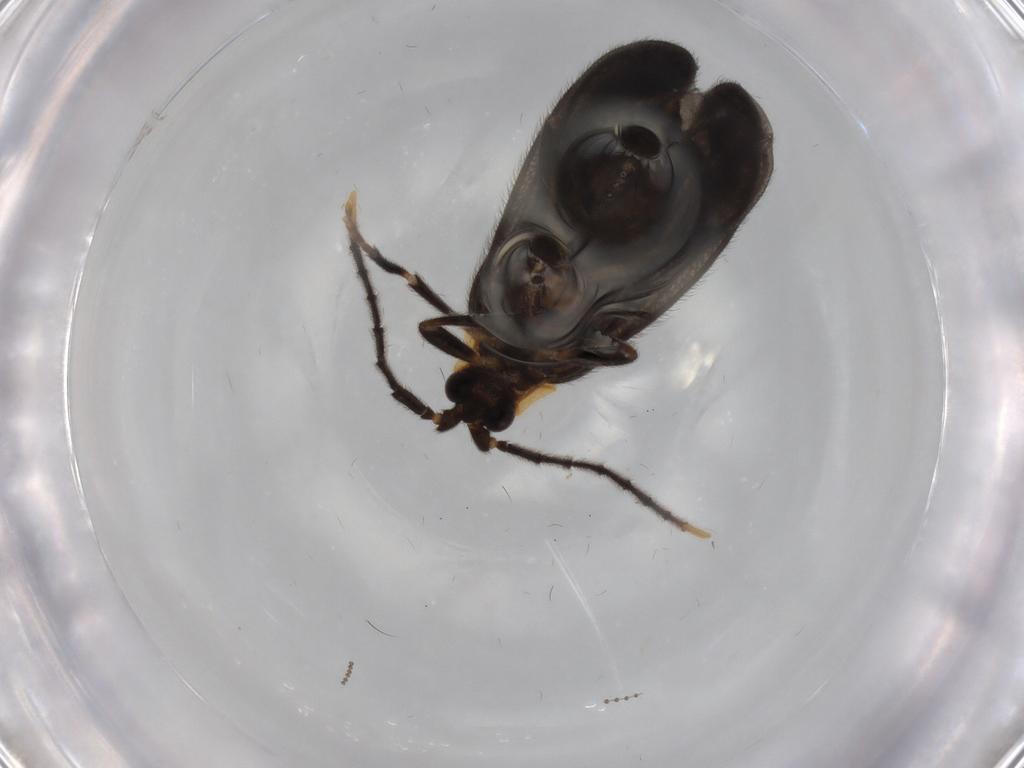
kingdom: Animalia
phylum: Arthropoda
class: Insecta
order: Coleoptera
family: Lycidae
